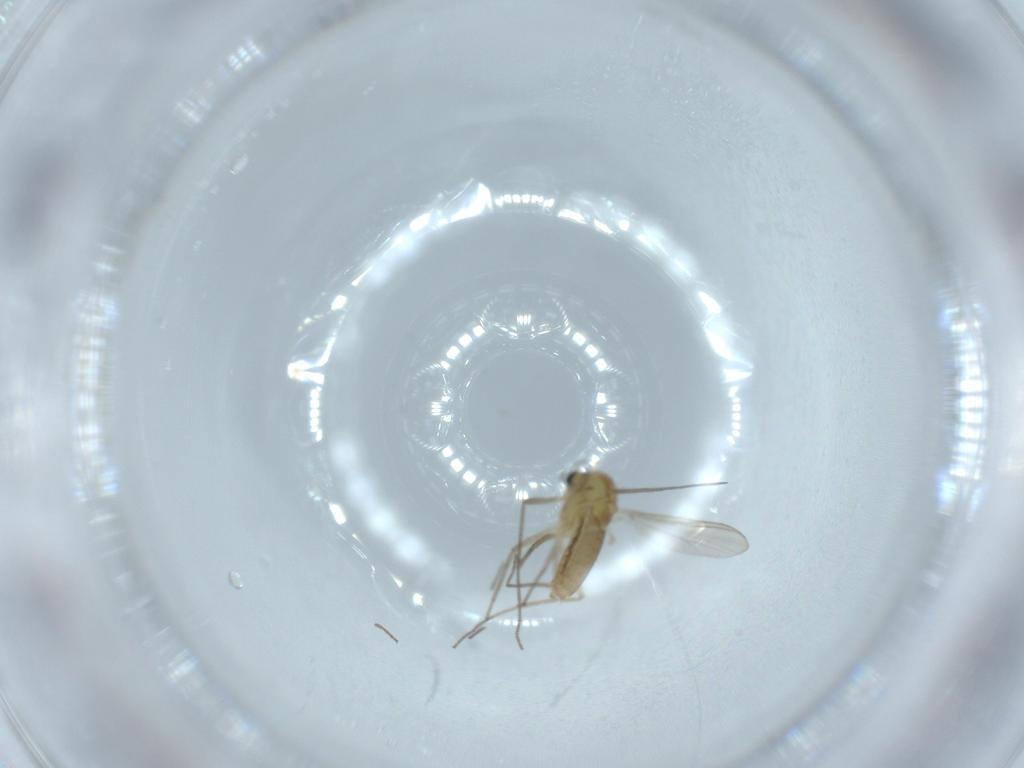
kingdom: Animalia
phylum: Arthropoda
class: Insecta
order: Diptera
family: Chironomidae
